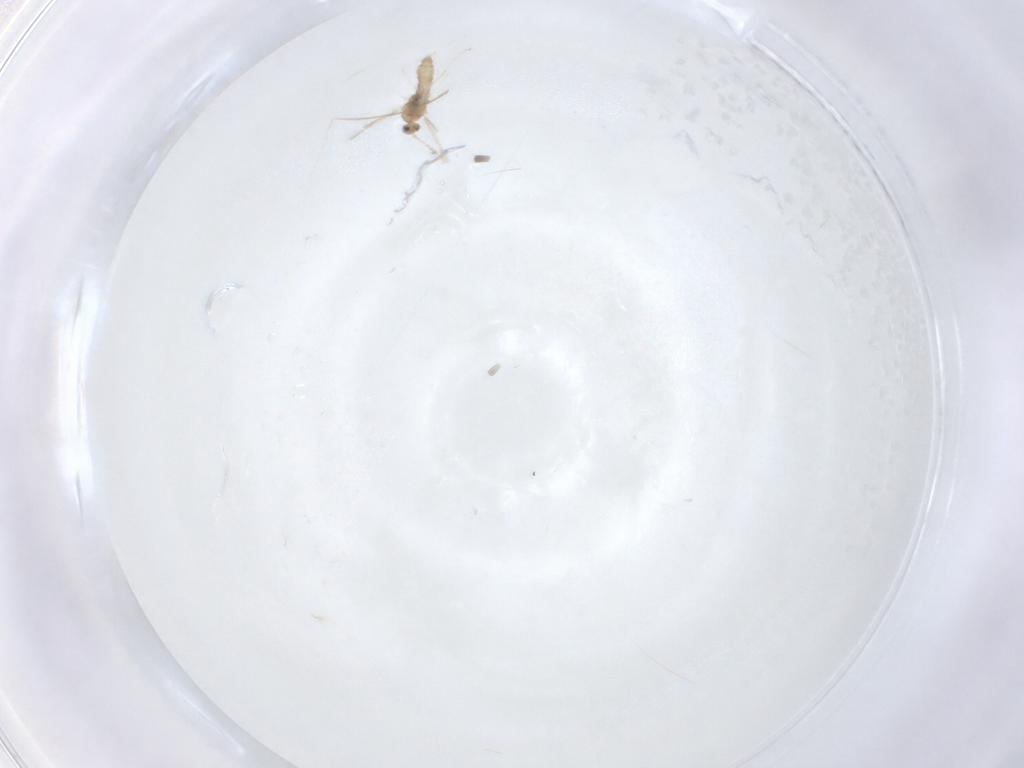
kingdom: Animalia
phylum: Arthropoda
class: Insecta
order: Diptera
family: Cecidomyiidae
